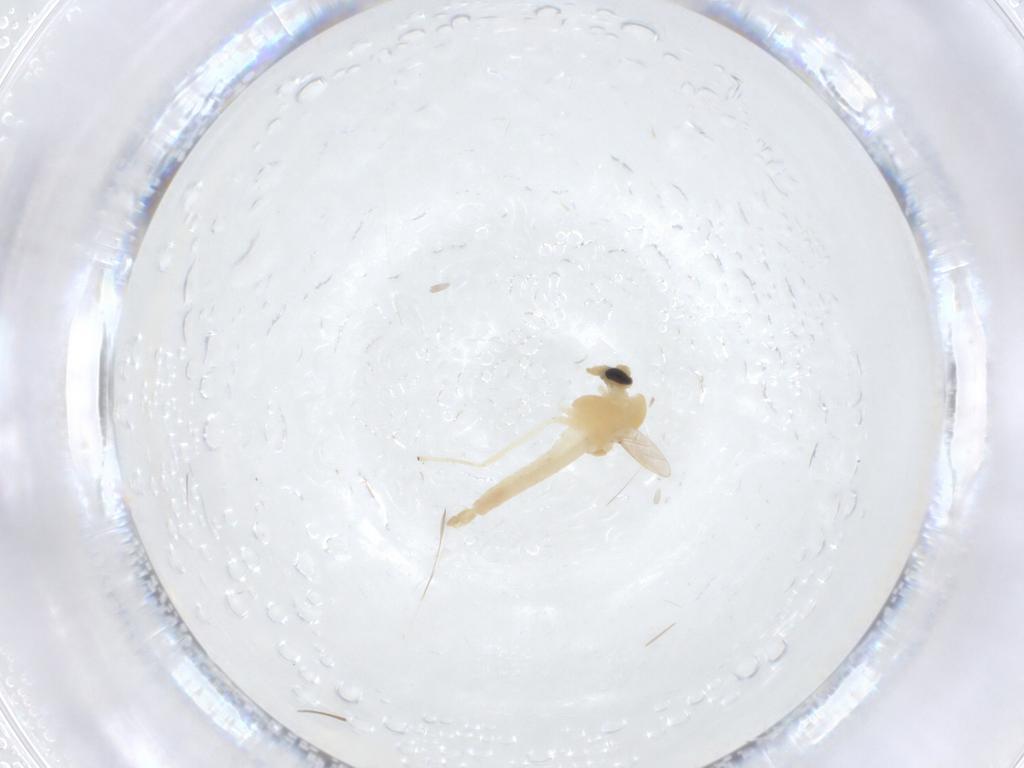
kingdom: Animalia
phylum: Arthropoda
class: Insecta
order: Diptera
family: Chironomidae
